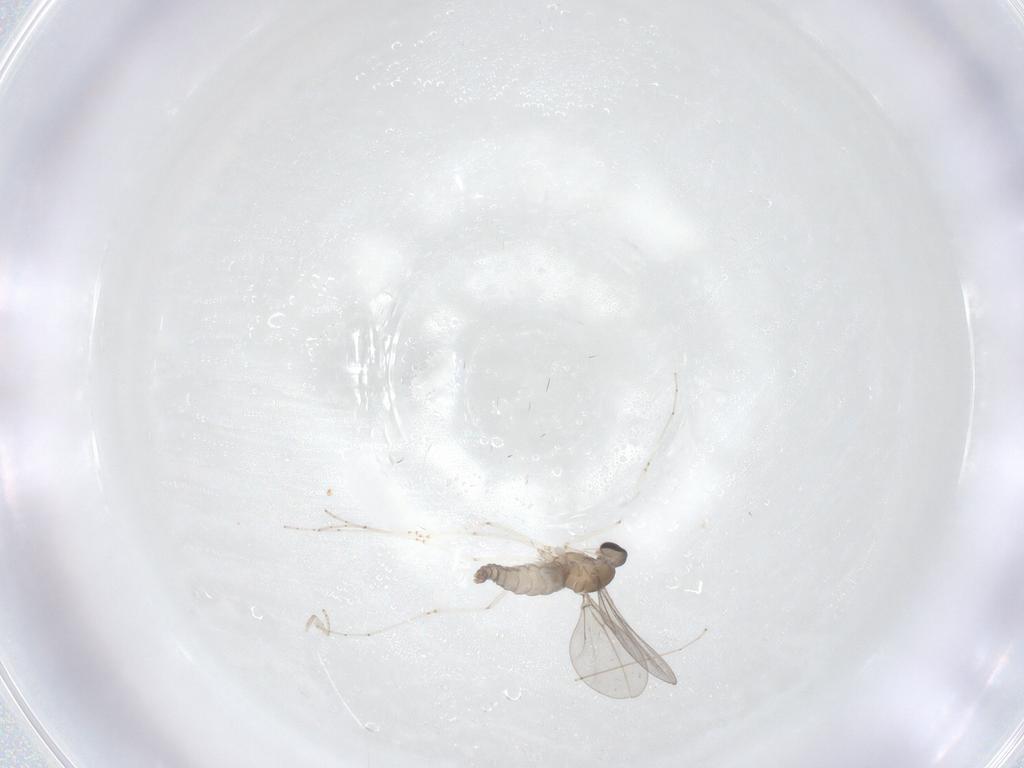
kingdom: Animalia
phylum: Arthropoda
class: Insecta
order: Diptera
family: Cecidomyiidae
